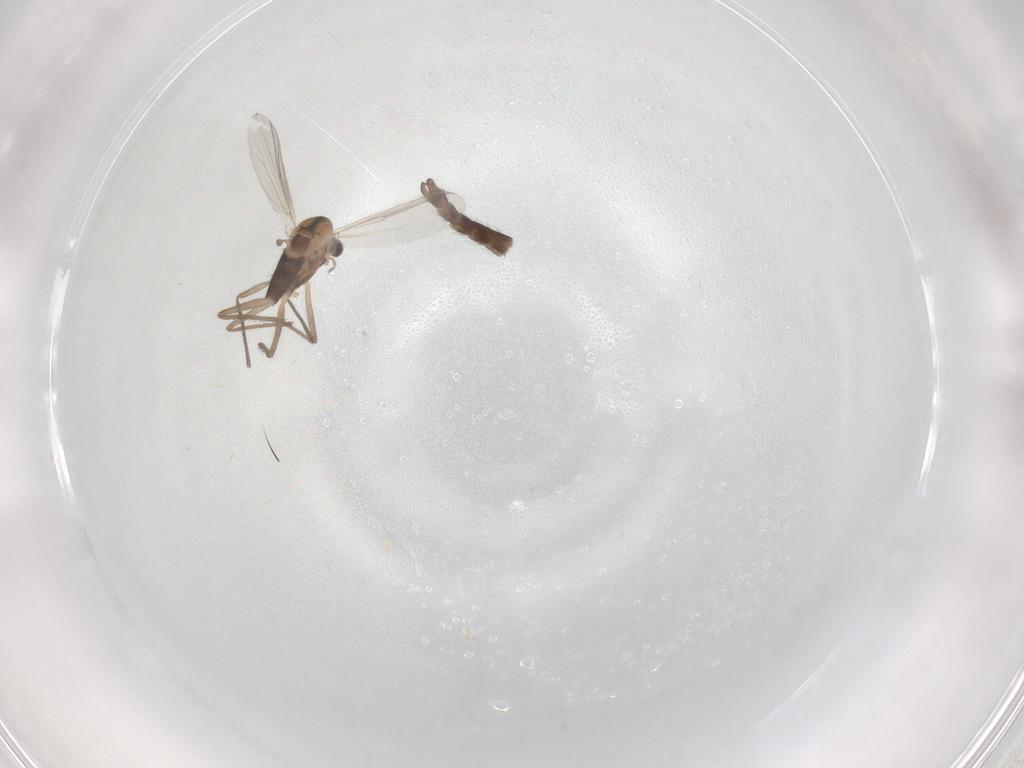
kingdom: Animalia
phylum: Arthropoda
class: Insecta
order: Diptera
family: Chironomidae
